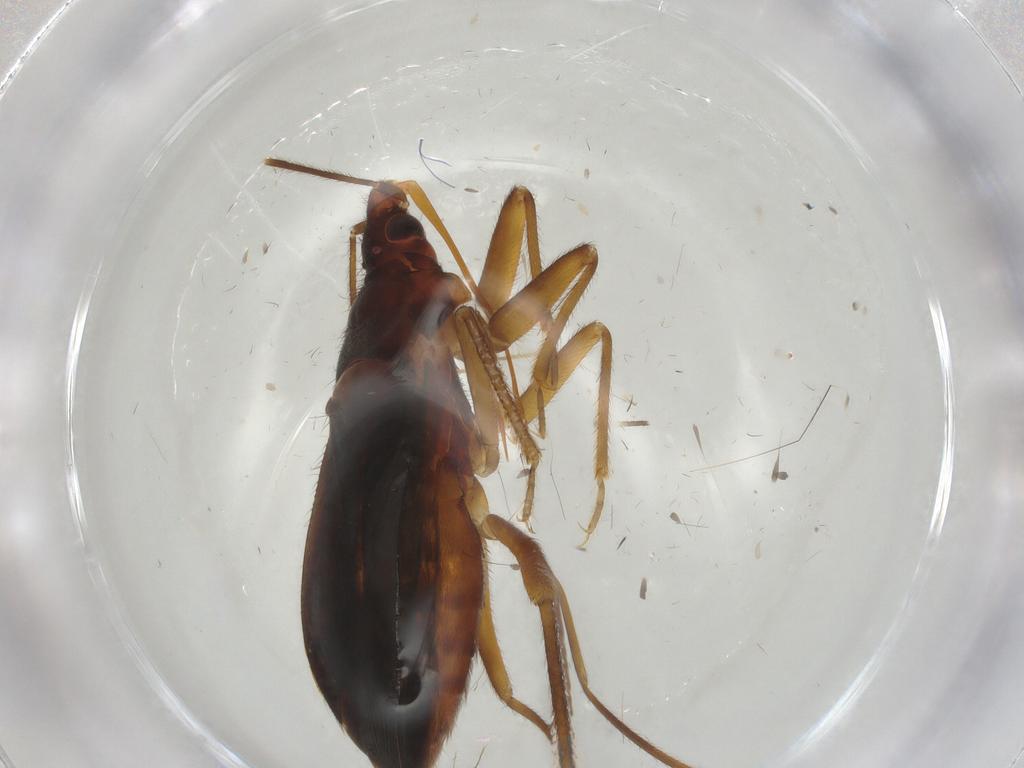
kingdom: Animalia
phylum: Arthropoda
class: Insecta
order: Hemiptera
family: Anthocoridae
